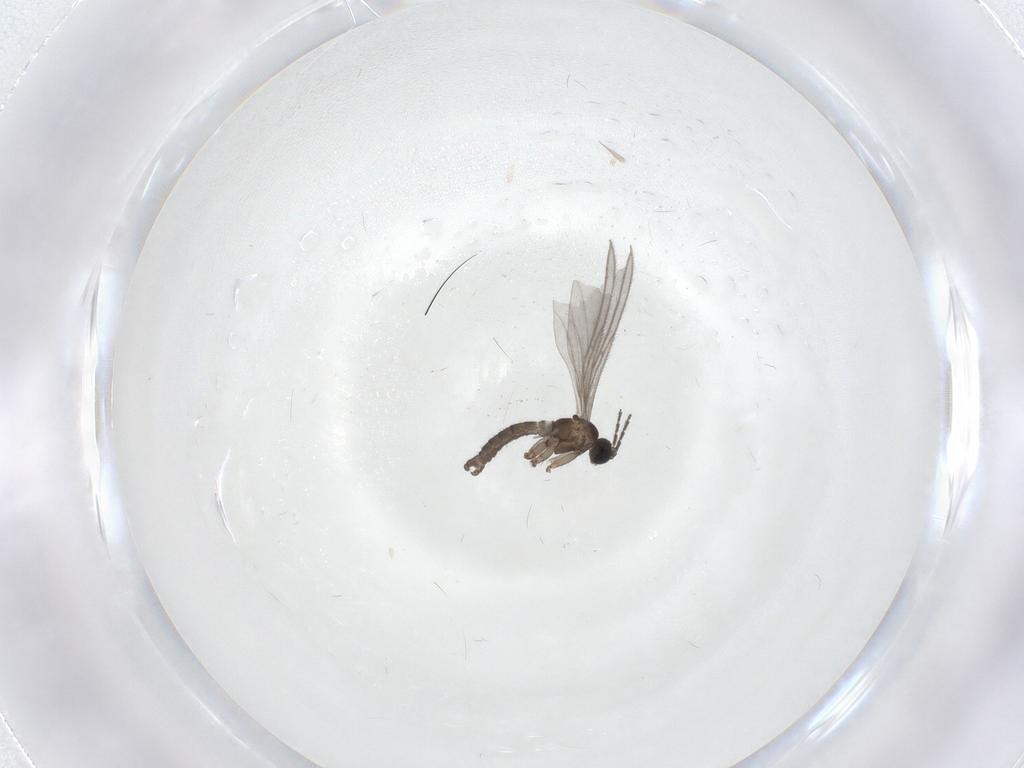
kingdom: Animalia
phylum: Arthropoda
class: Insecta
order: Diptera
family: Sciaridae
